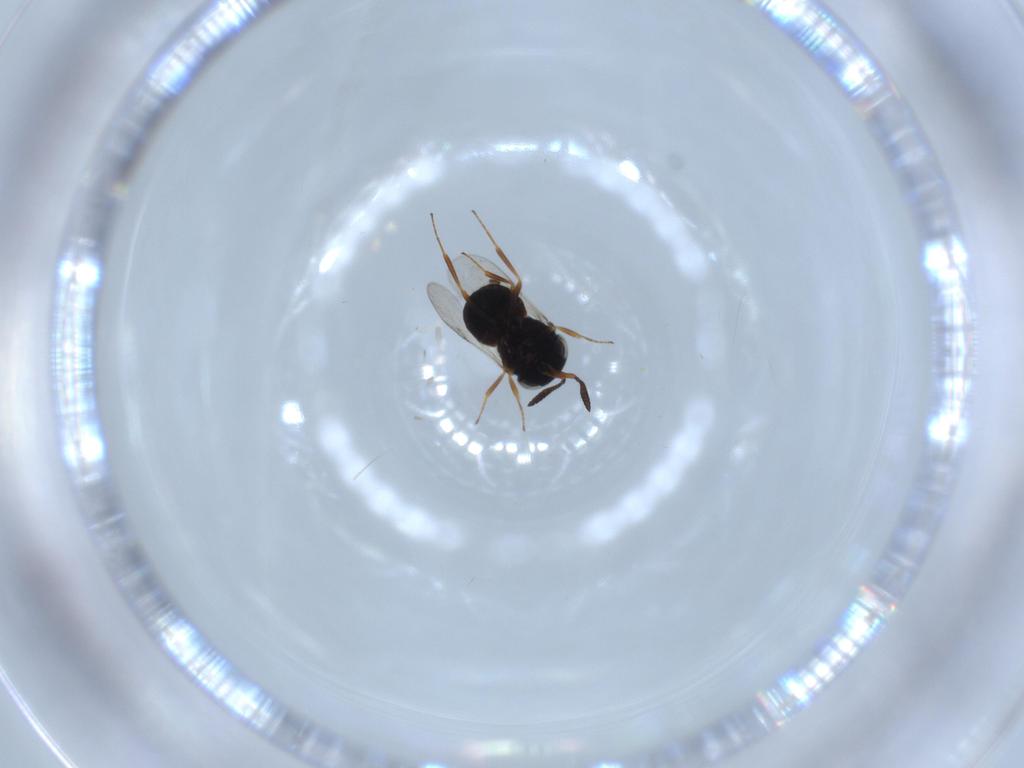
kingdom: Animalia
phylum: Arthropoda
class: Insecta
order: Hymenoptera
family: Scelionidae
